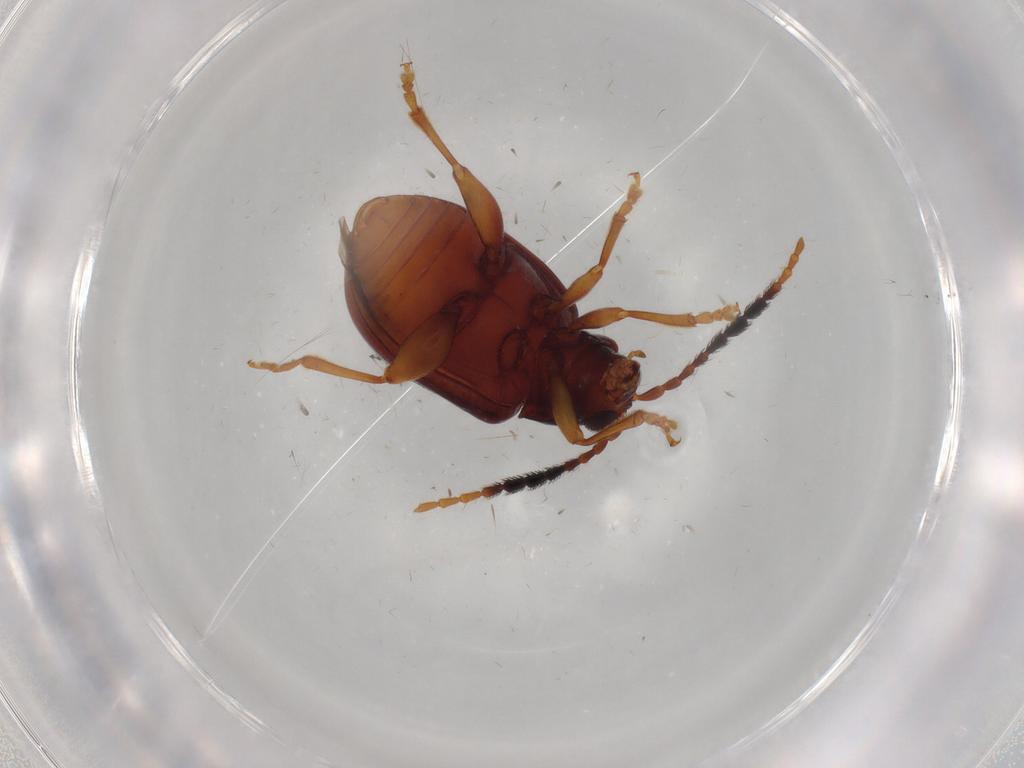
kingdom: Animalia
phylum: Arthropoda
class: Insecta
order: Coleoptera
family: Chrysomelidae
